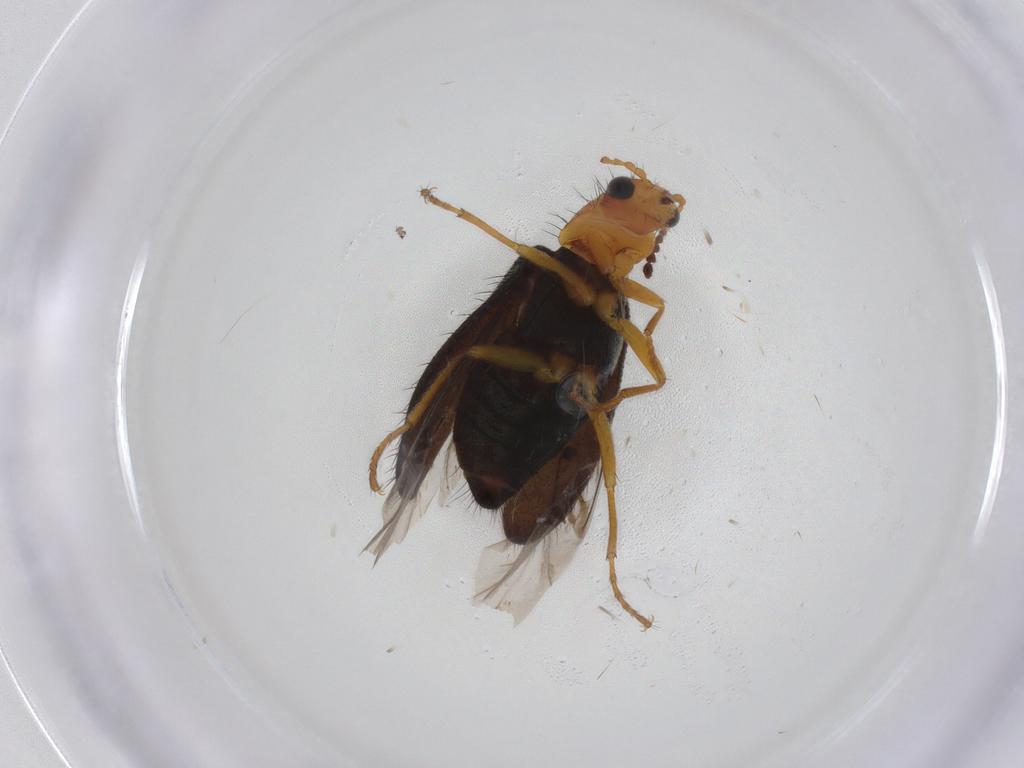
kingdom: Animalia
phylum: Arthropoda
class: Insecta
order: Coleoptera
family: Melyridae
